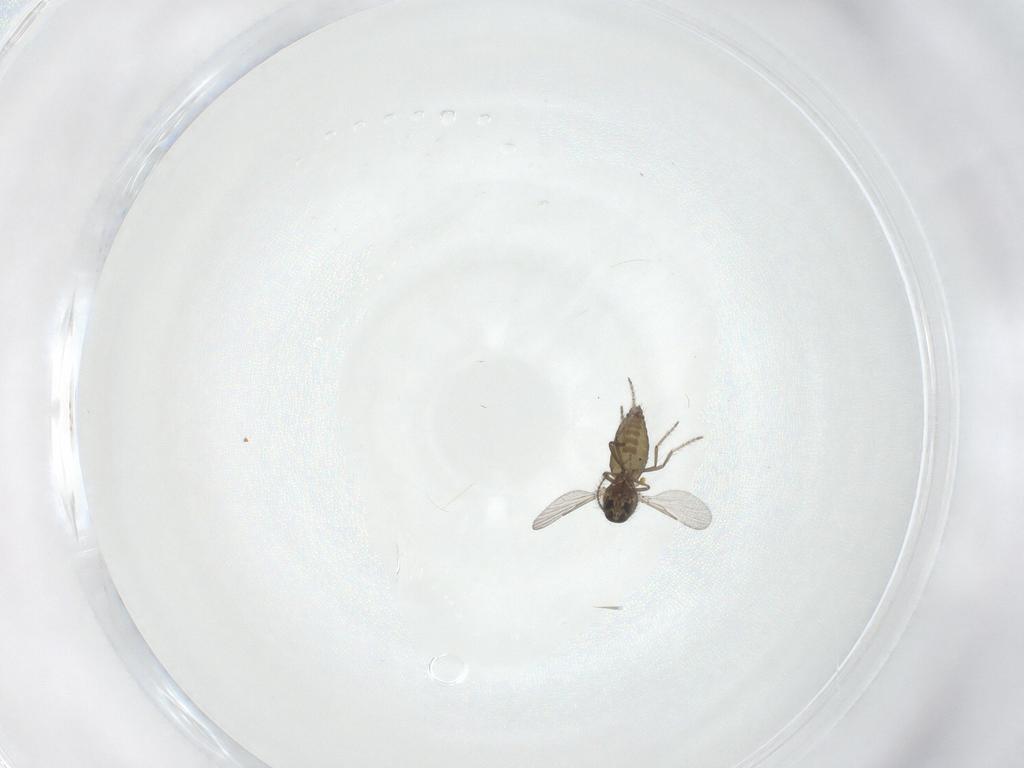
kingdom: Animalia
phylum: Arthropoda
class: Insecta
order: Diptera
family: Ceratopogonidae
